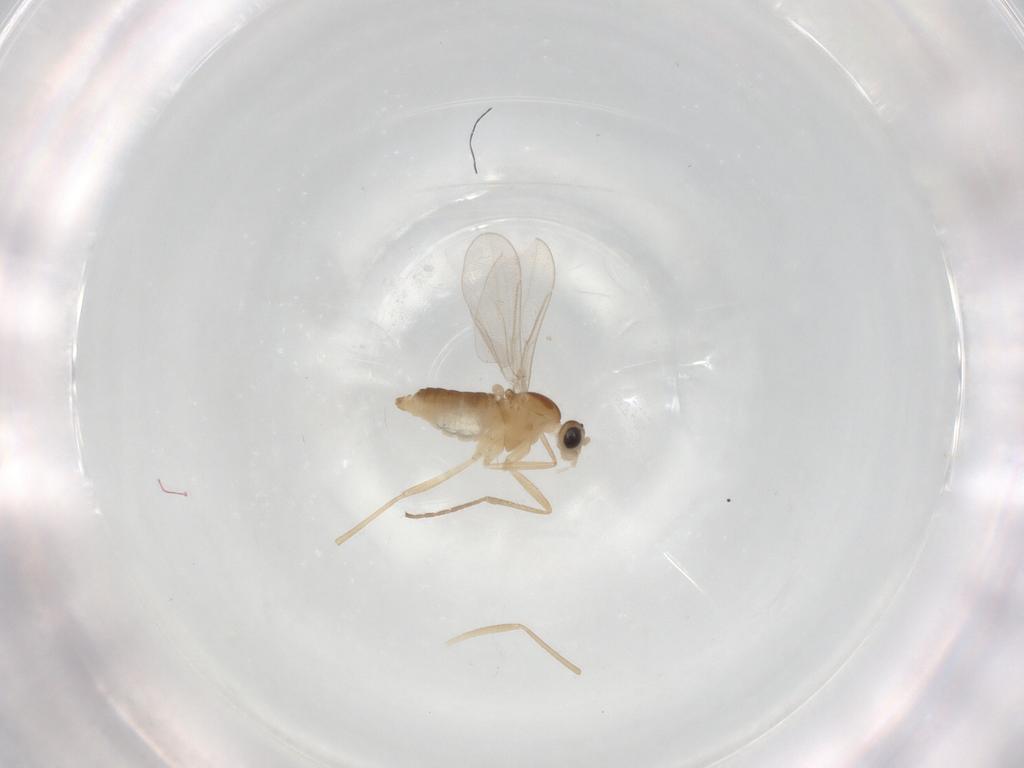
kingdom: Animalia
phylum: Arthropoda
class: Insecta
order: Diptera
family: Cecidomyiidae
